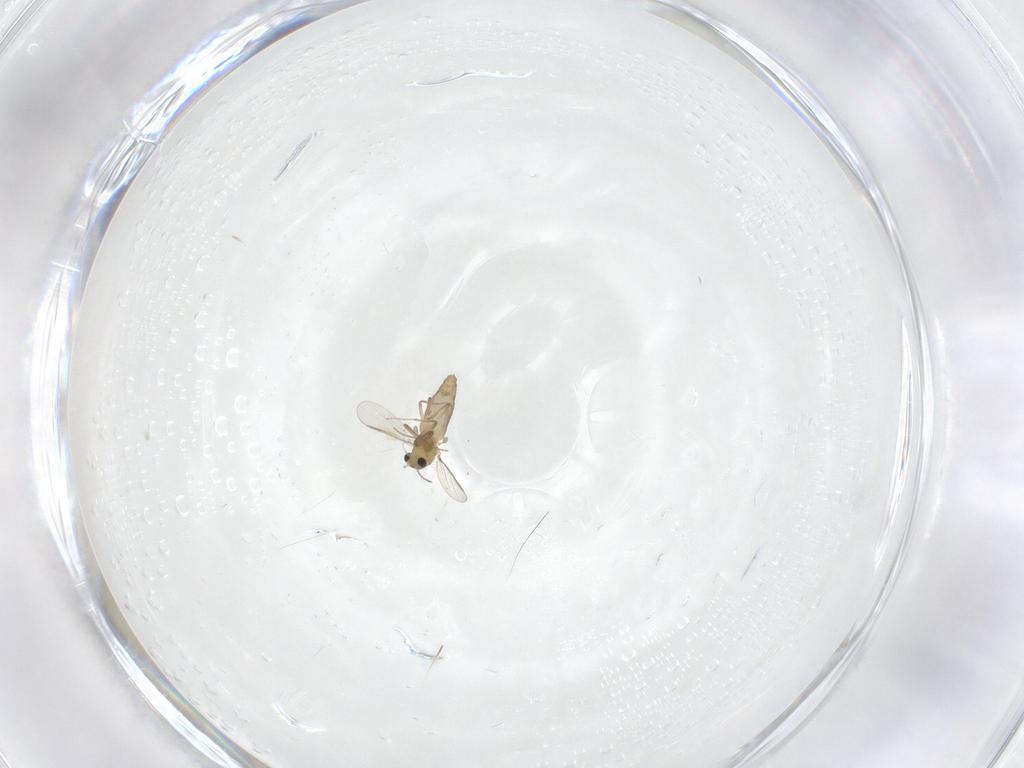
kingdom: Animalia
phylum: Arthropoda
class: Insecta
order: Diptera
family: Chironomidae
